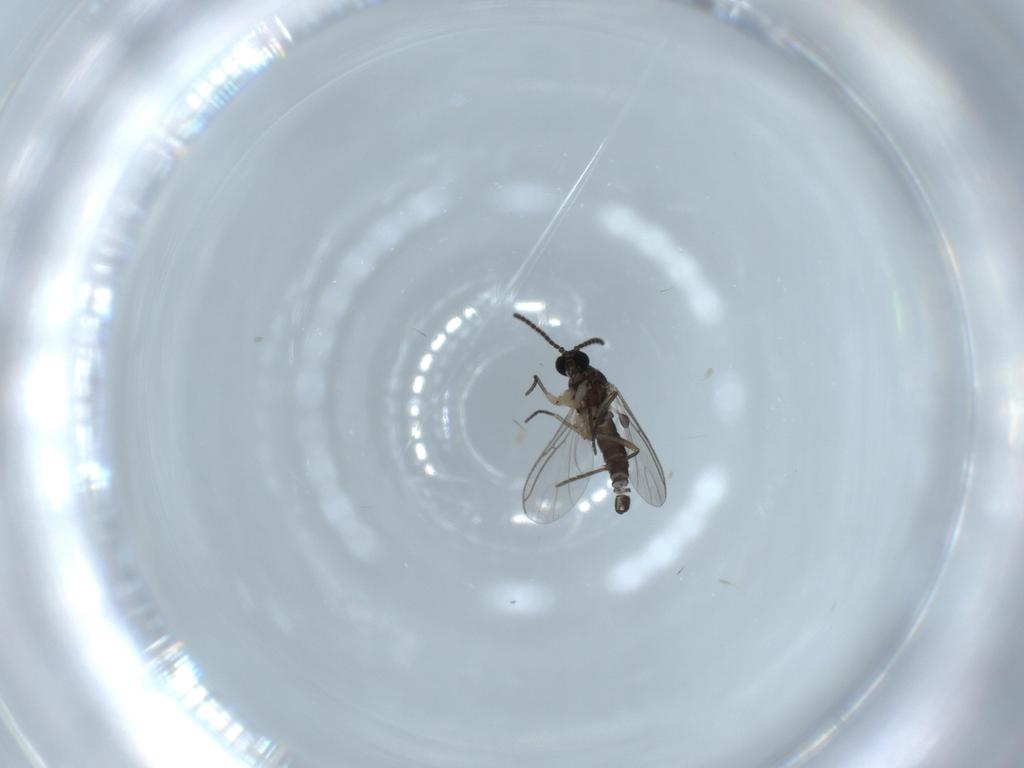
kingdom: Animalia
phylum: Arthropoda
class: Insecta
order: Diptera
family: Sciaridae
